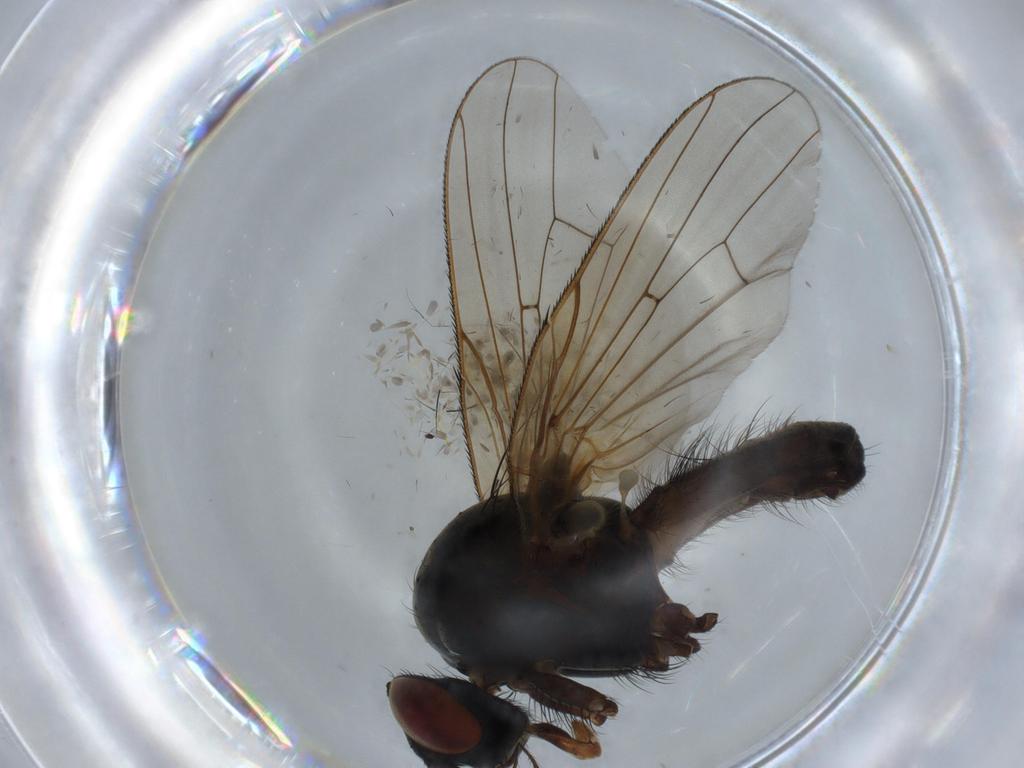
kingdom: Animalia
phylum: Arthropoda
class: Insecta
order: Diptera
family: Anthomyiidae
